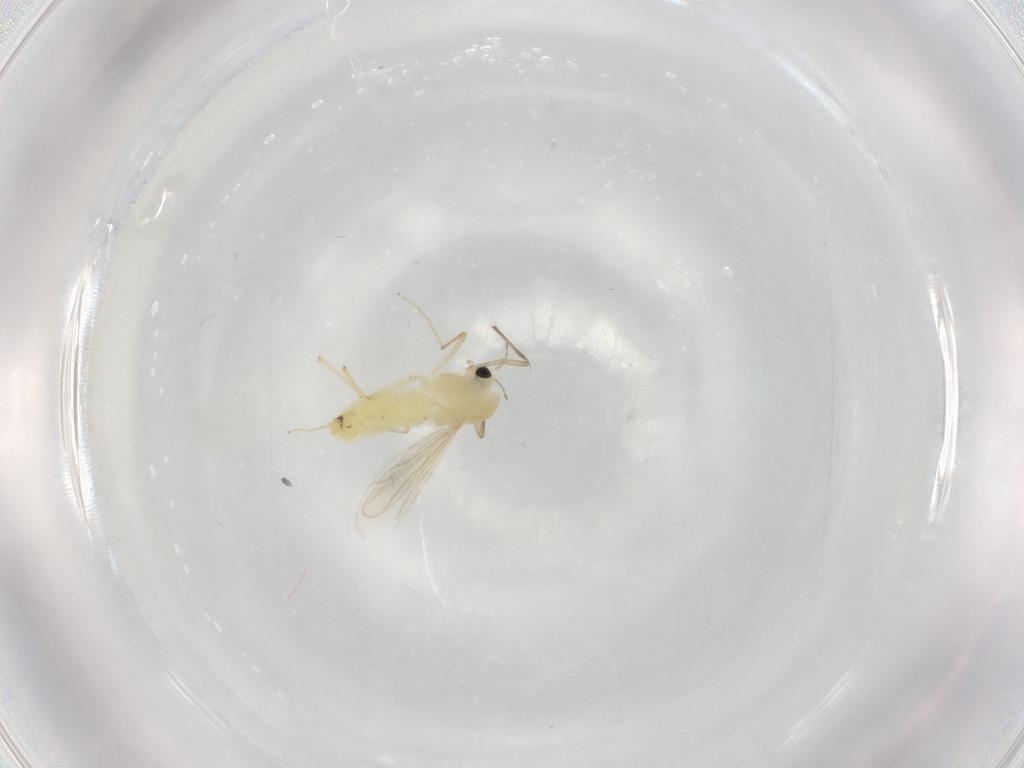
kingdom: Animalia
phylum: Arthropoda
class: Insecta
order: Diptera
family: Chironomidae
